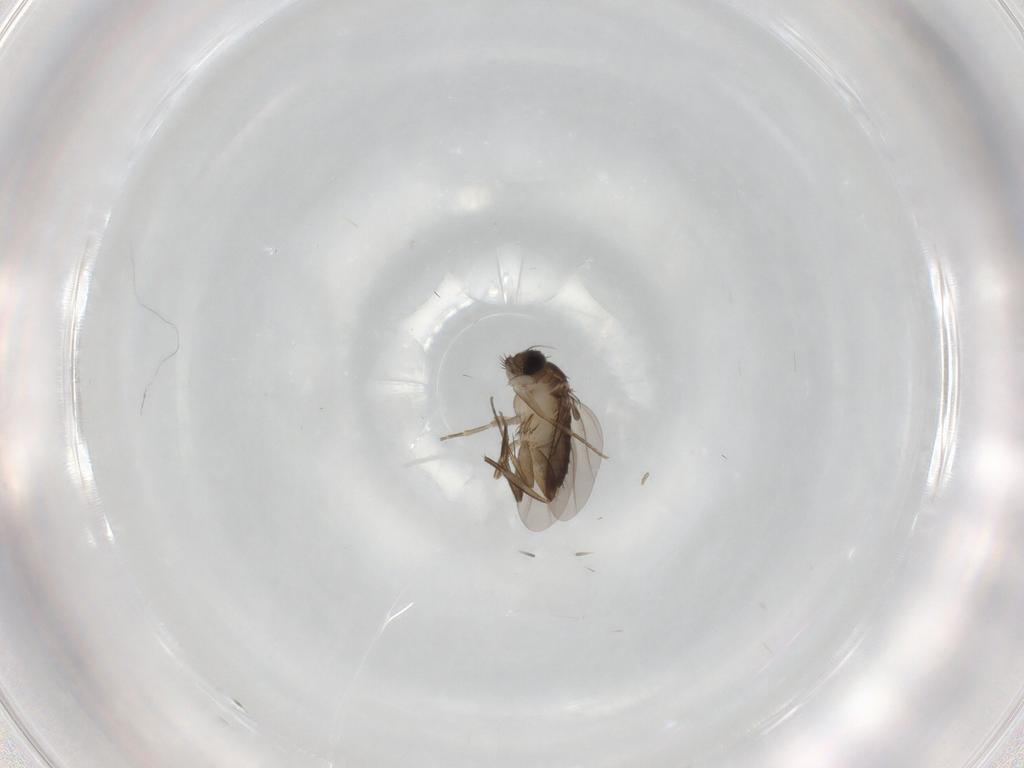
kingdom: Animalia
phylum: Arthropoda
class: Insecta
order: Diptera
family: Phoridae
